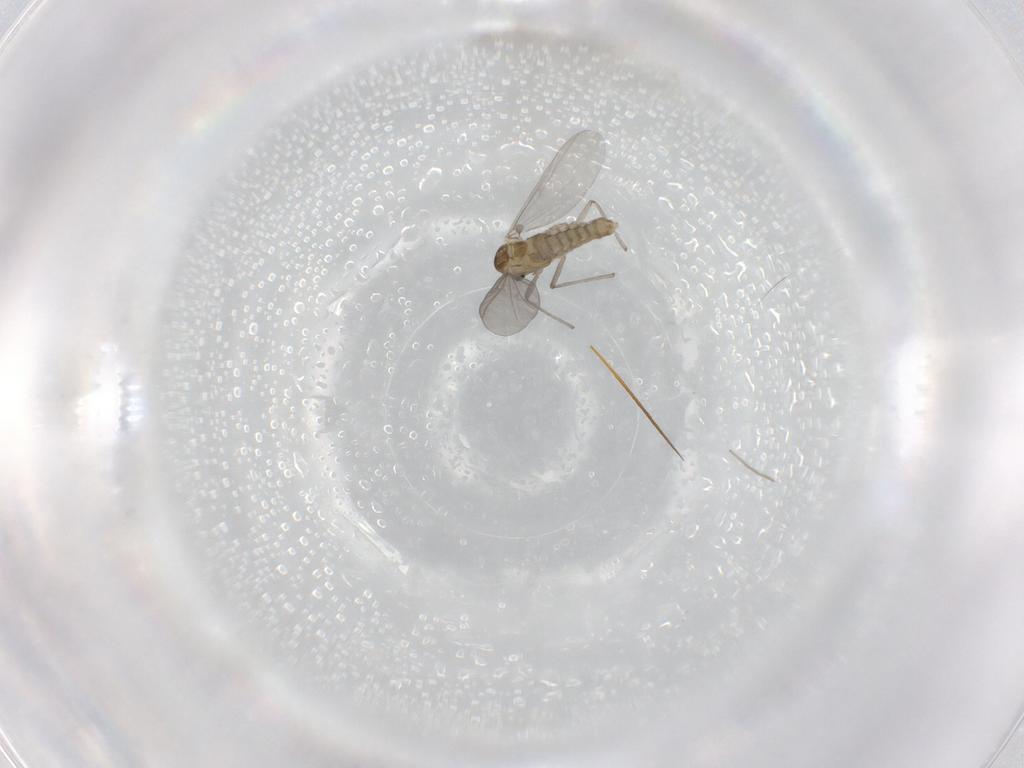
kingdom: Animalia
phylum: Arthropoda
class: Insecta
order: Diptera
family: Chironomidae
